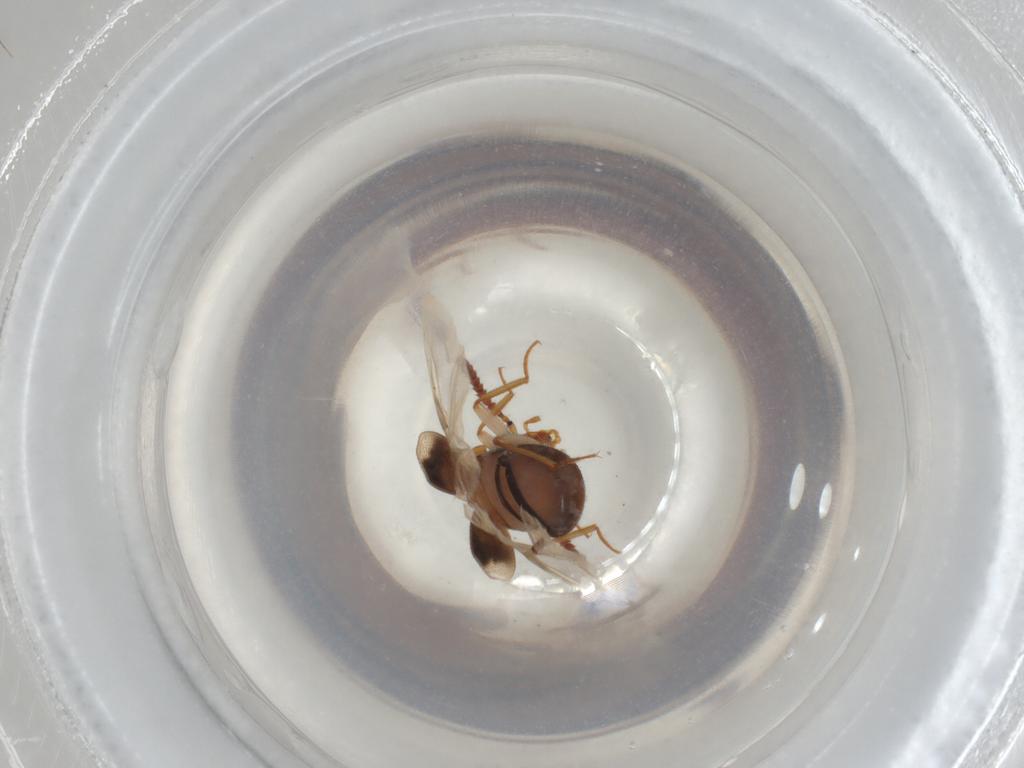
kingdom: Animalia
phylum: Arthropoda
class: Insecta
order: Coleoptera
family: Staphylinidae
